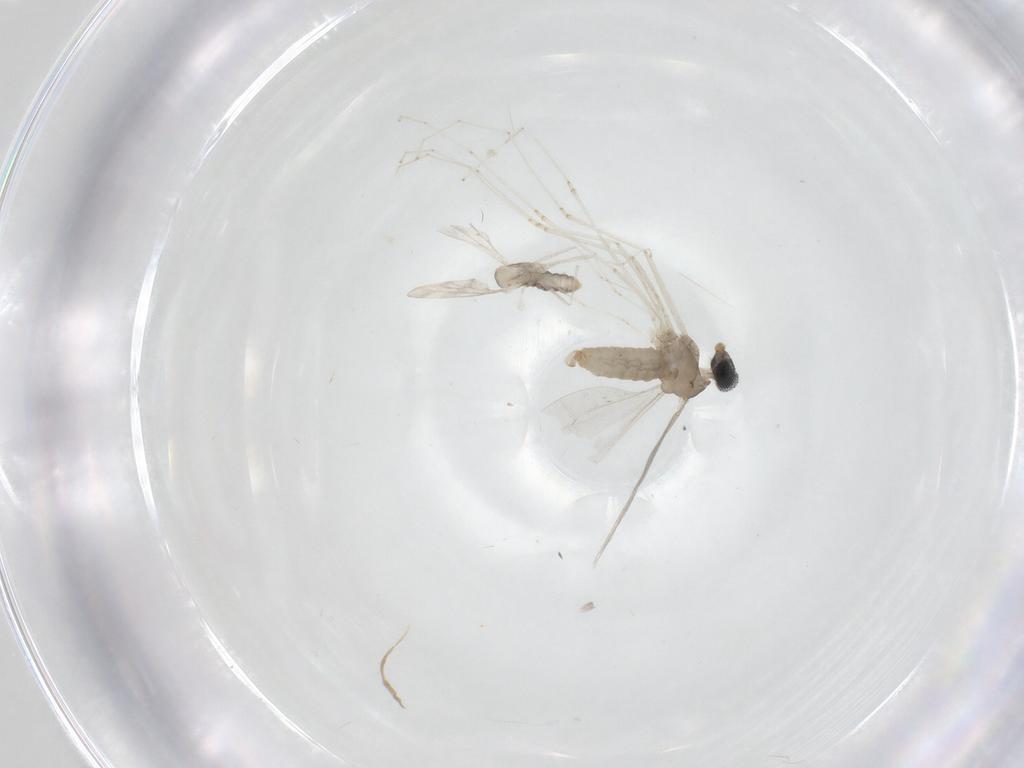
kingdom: Animalia
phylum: Arthropoda
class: Insecta
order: Diptera
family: Cecidomyiidae
